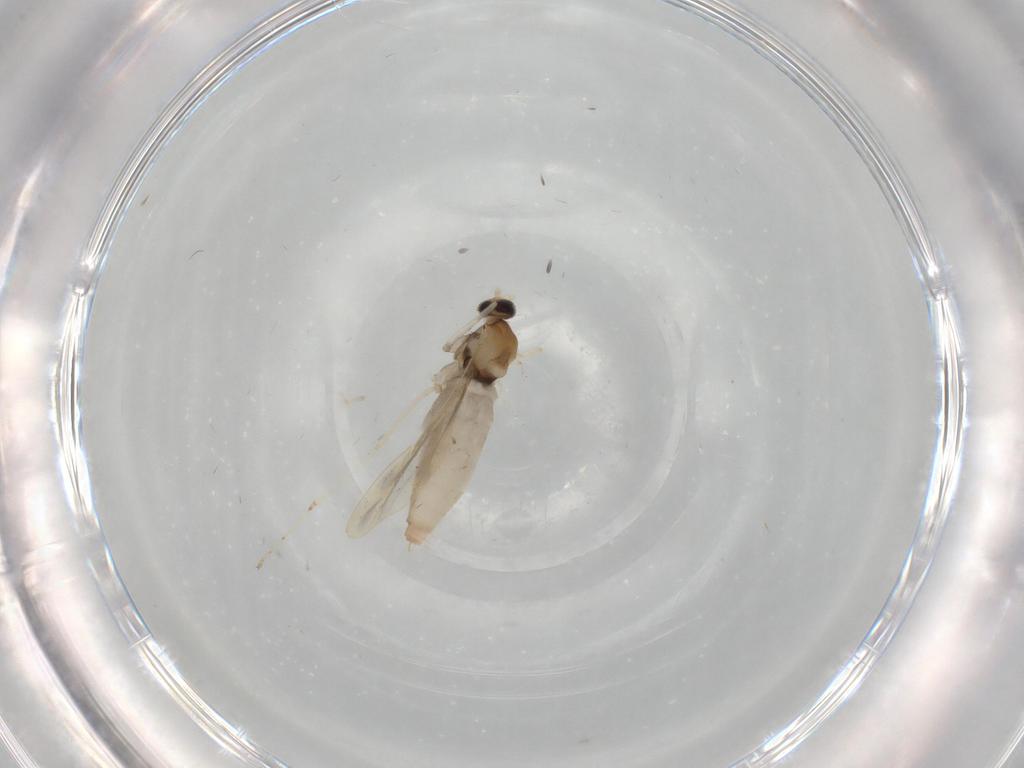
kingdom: Animalia
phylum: Arthropoda
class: Insecta
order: Diptera
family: Cecidomyiidae
